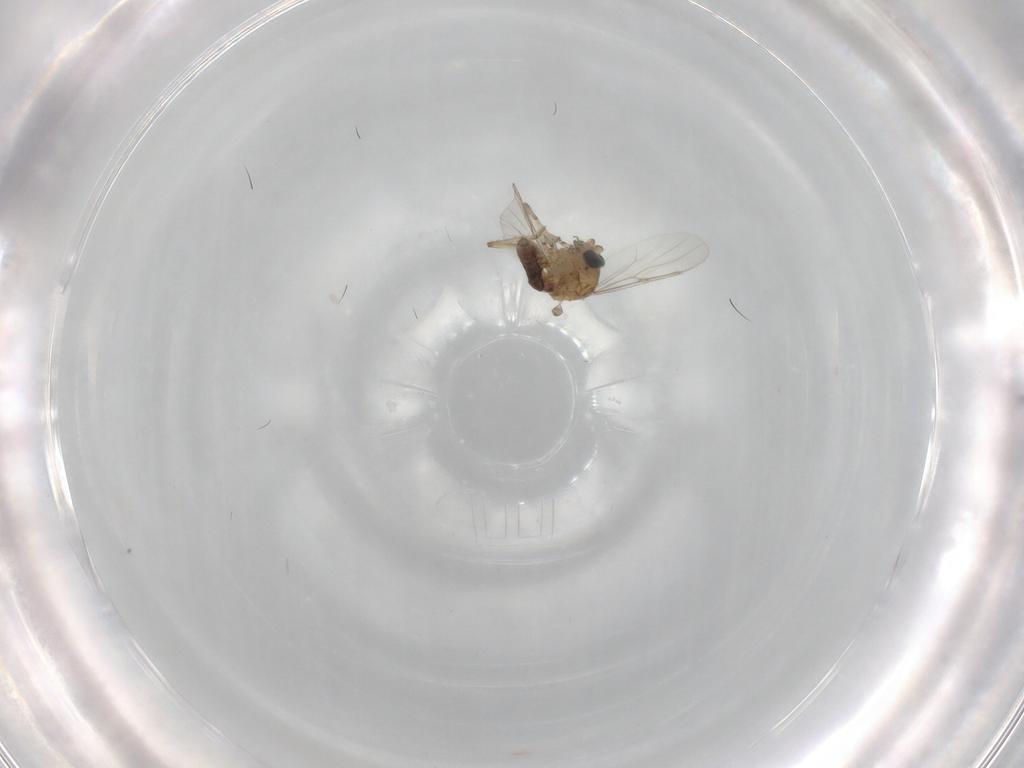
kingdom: Animalia
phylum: Arthropoda
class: Insecta
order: Diptera
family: Ceratopogonidae
